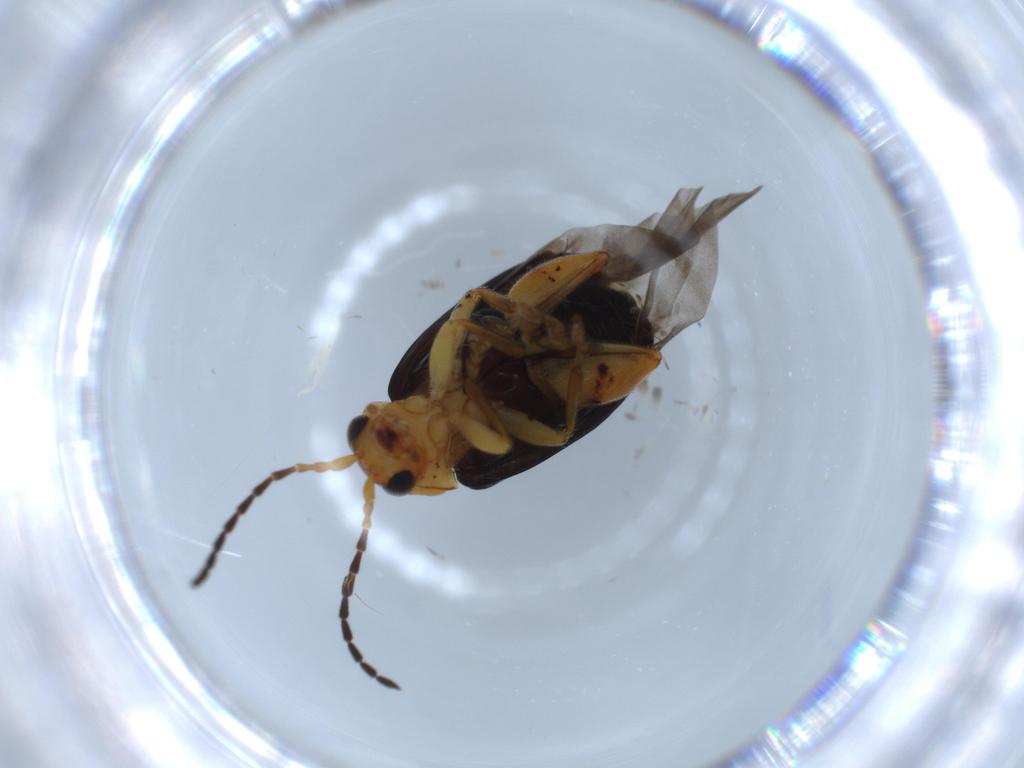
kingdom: Animalia
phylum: Arthropoda
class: Insecta
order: Coleoptera
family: Chrysomelidae
